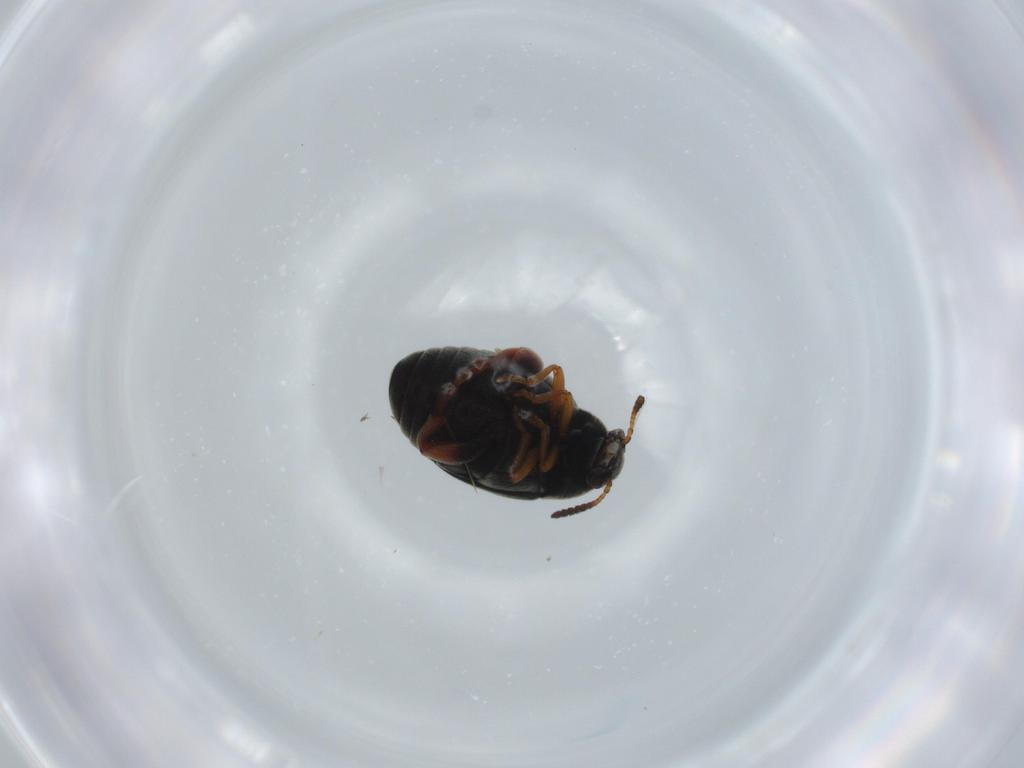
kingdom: Animalia
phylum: Arthropoda
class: Insecta
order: Coleoptera
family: Chrysomelidae
